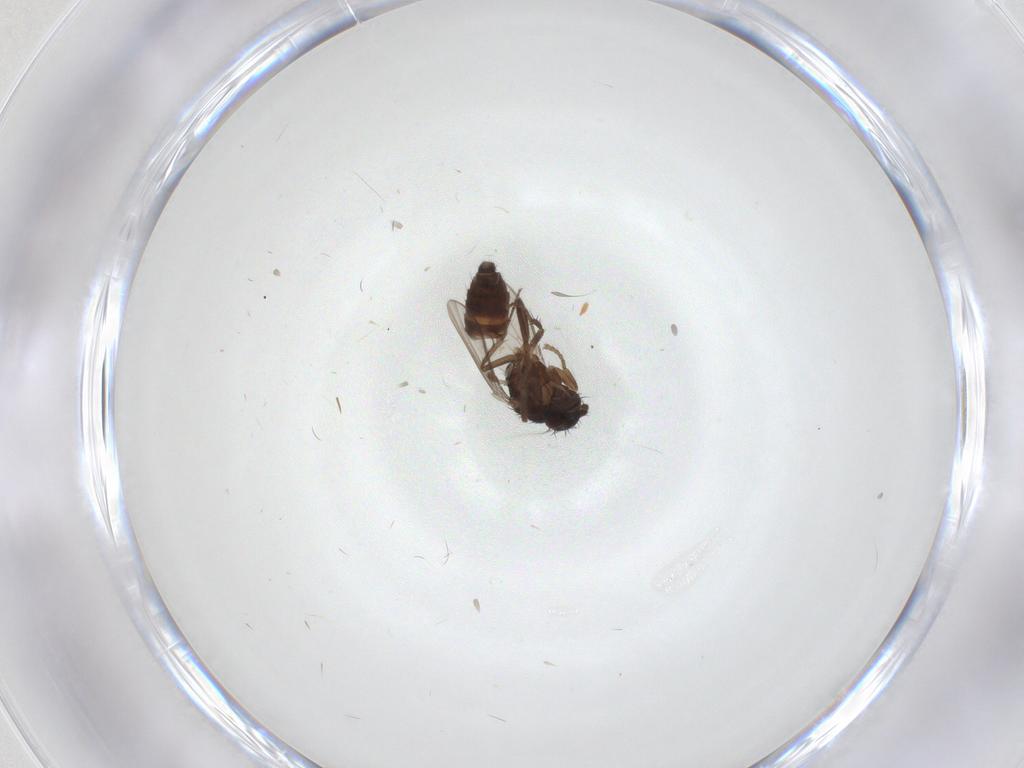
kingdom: Animalia
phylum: Arthropoda
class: Insecta
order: Diptera
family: Sphaeroceridae
